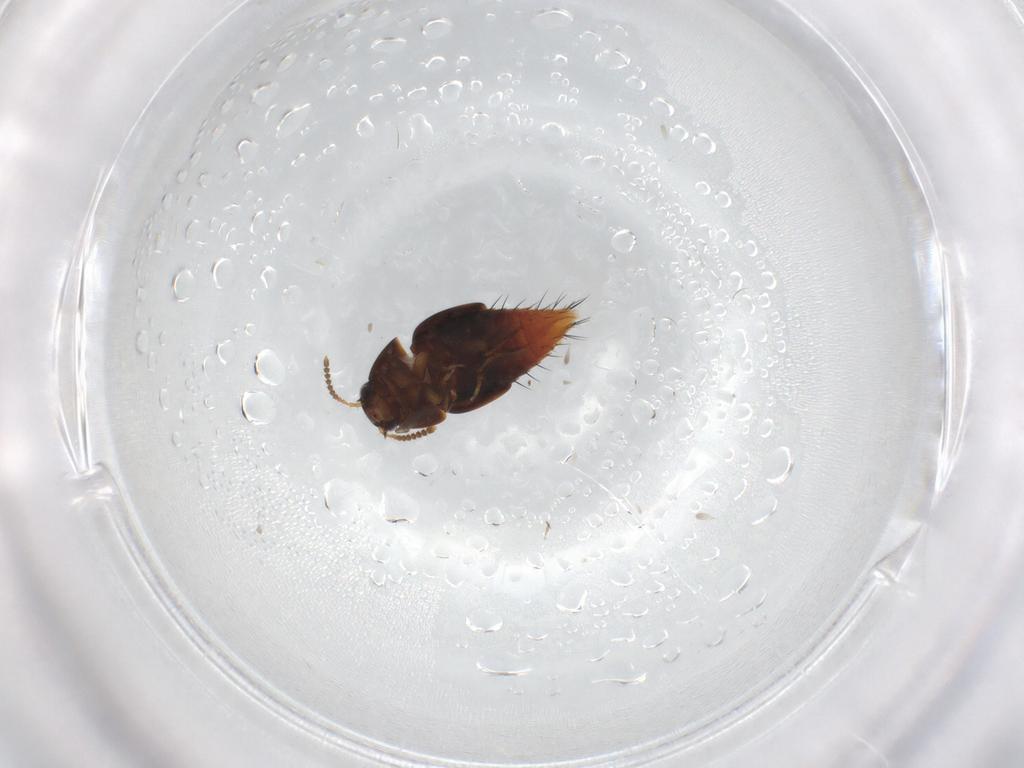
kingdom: Animalia
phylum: Arthropoda
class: Insecta
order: Coleoptera
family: Staphylinidae
